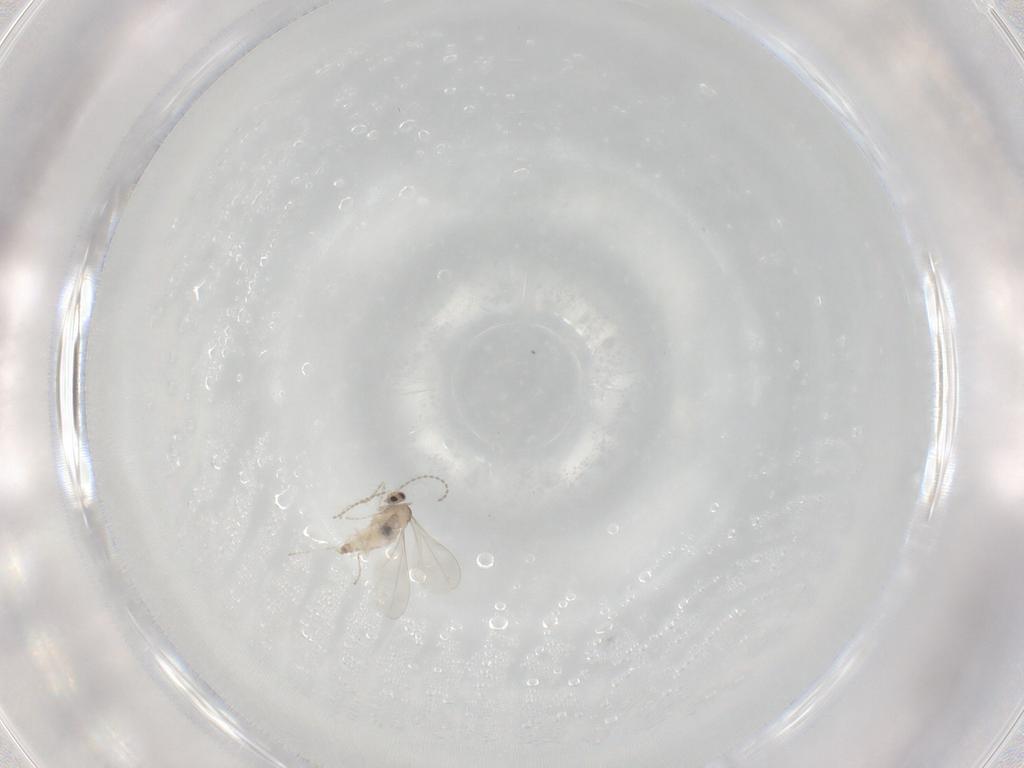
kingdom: Animalia
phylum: Arthropoda
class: Insecta
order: Diptera
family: Cecidomyiidae
